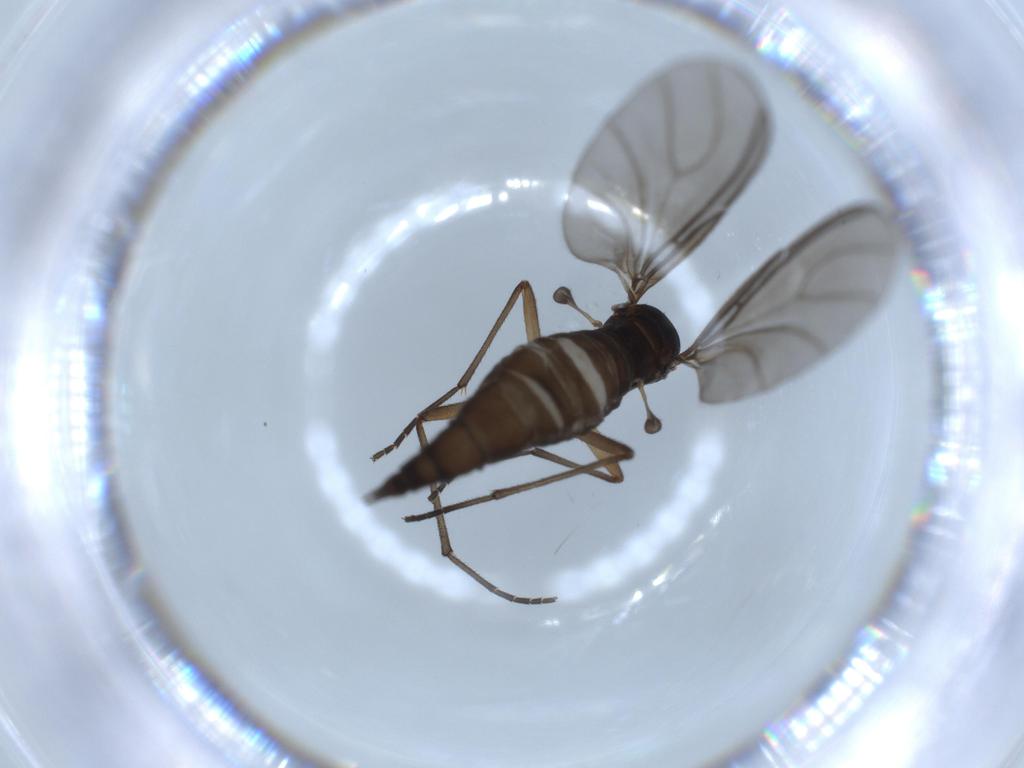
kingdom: Animalia
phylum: Arthropoda
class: Insecta
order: Diptera
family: Sciaridae
